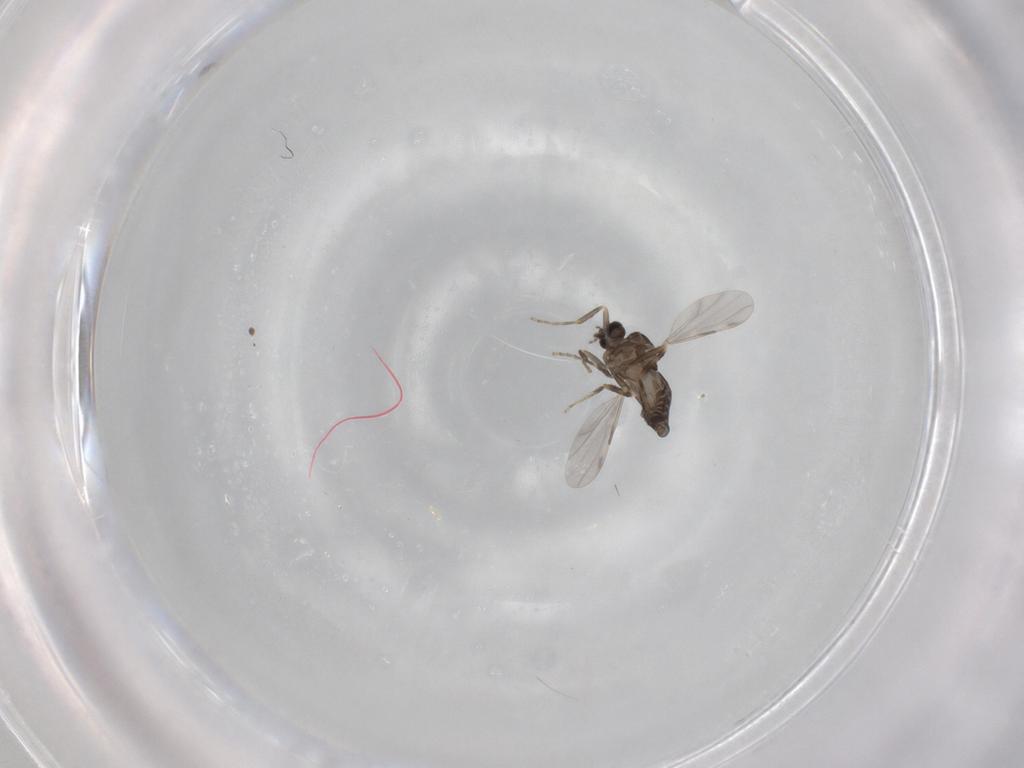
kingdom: Animalia
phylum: Arthropoda
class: Insecta
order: Diptera
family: Ceratopogonidae
